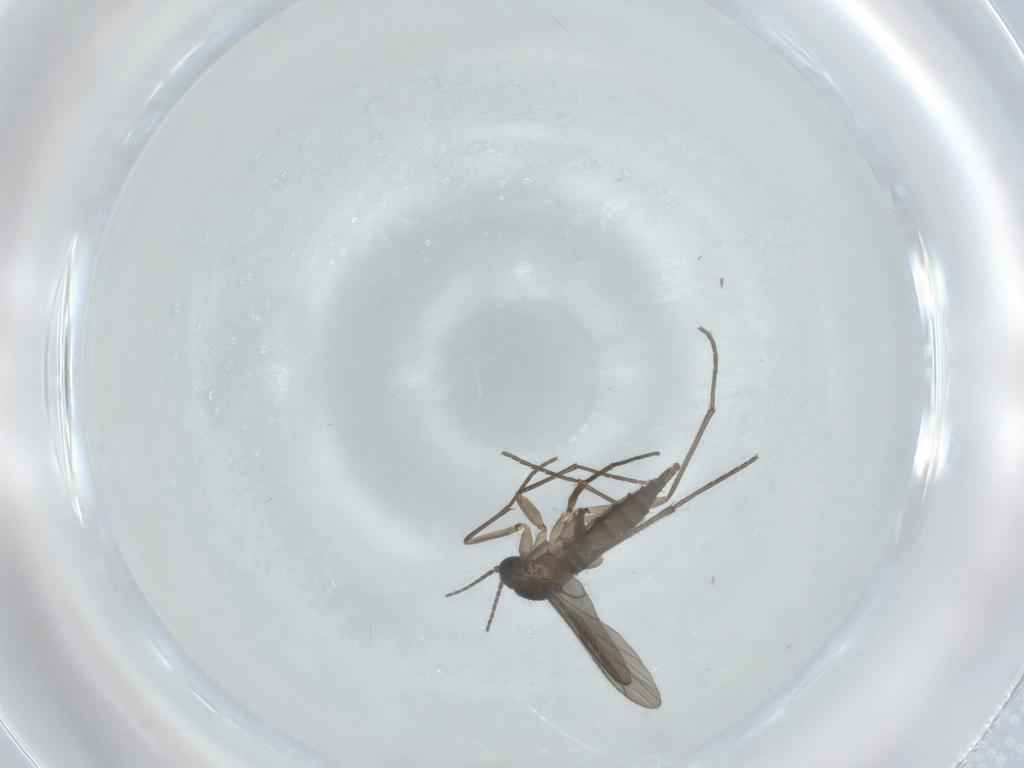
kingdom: Animalia
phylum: Arthropoda
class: Insecta
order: Diptera
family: Sciaridae
